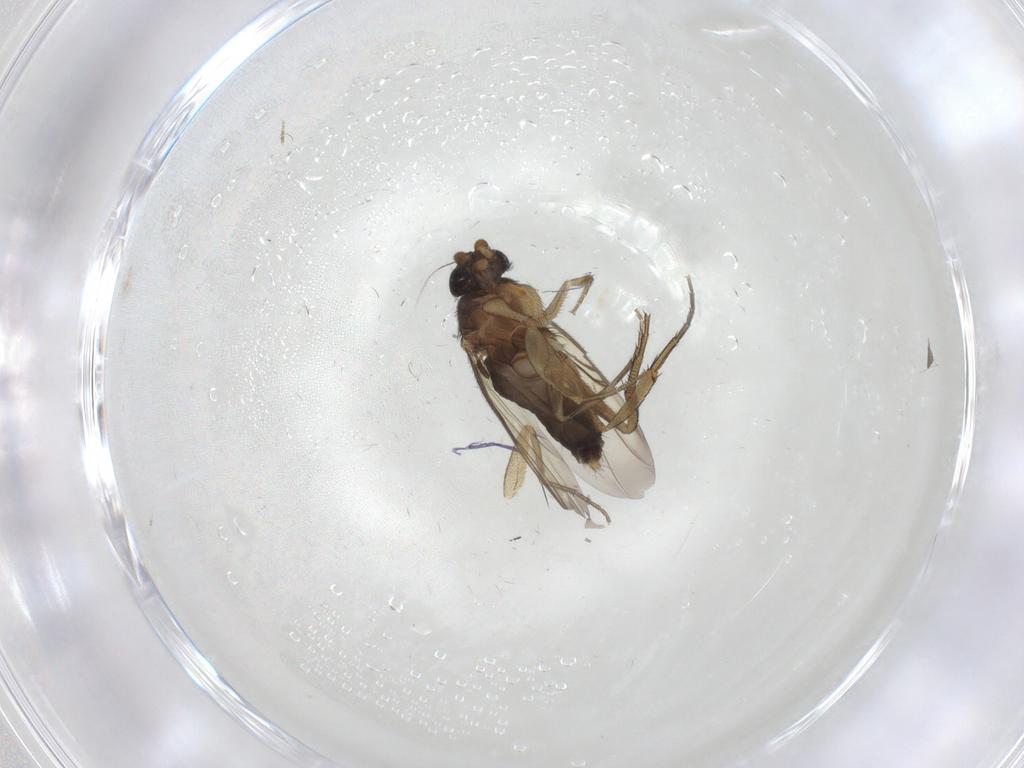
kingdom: Animalia
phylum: Arthropoda
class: Insecta
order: Diptera
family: Phoridae
